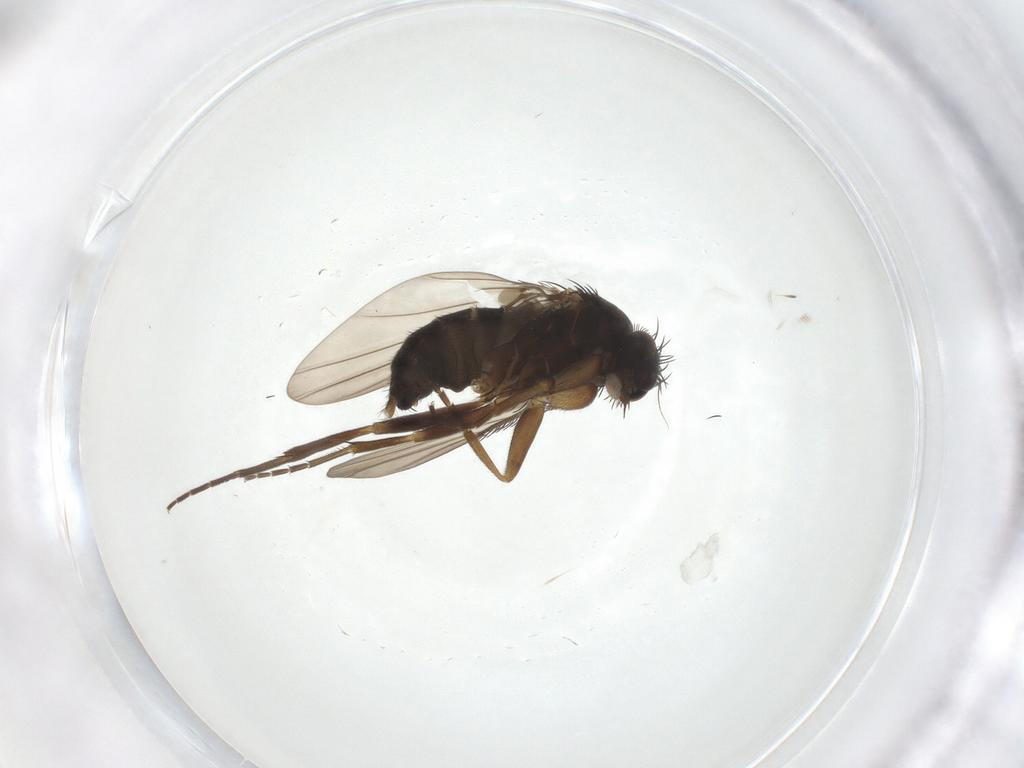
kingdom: Animalia
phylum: Arthropoda
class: Insecta
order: Diptera
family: Phoridae
